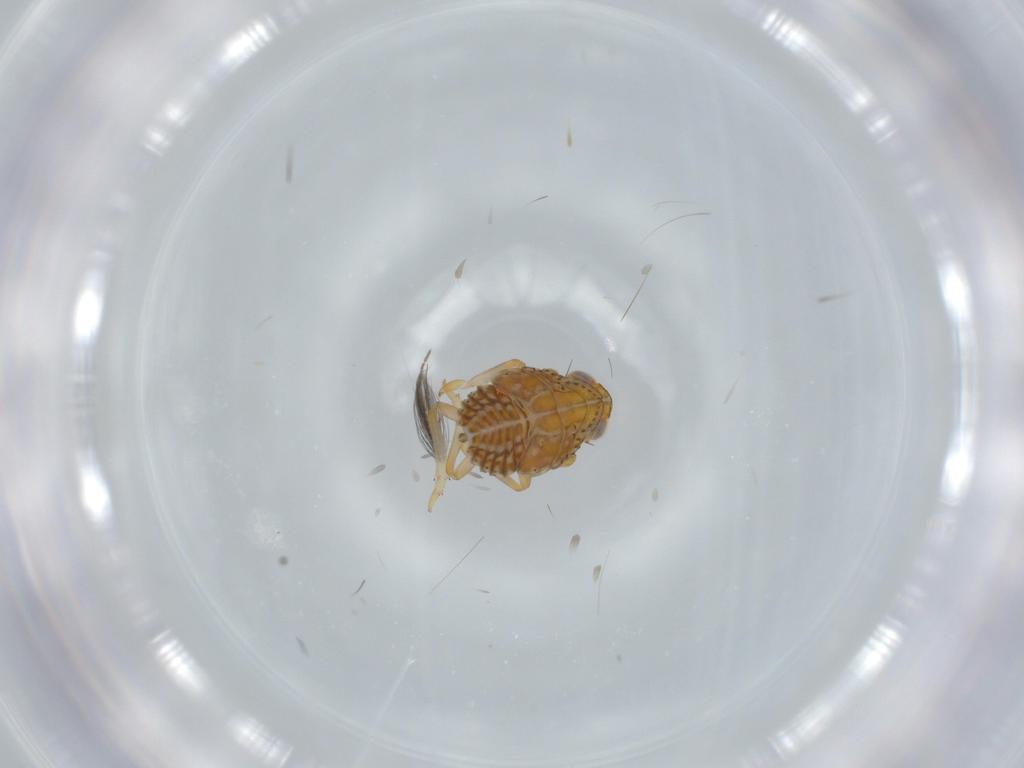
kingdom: Animalia
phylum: Arthropoda
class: Insecta
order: Hemiptera
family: Issidae
